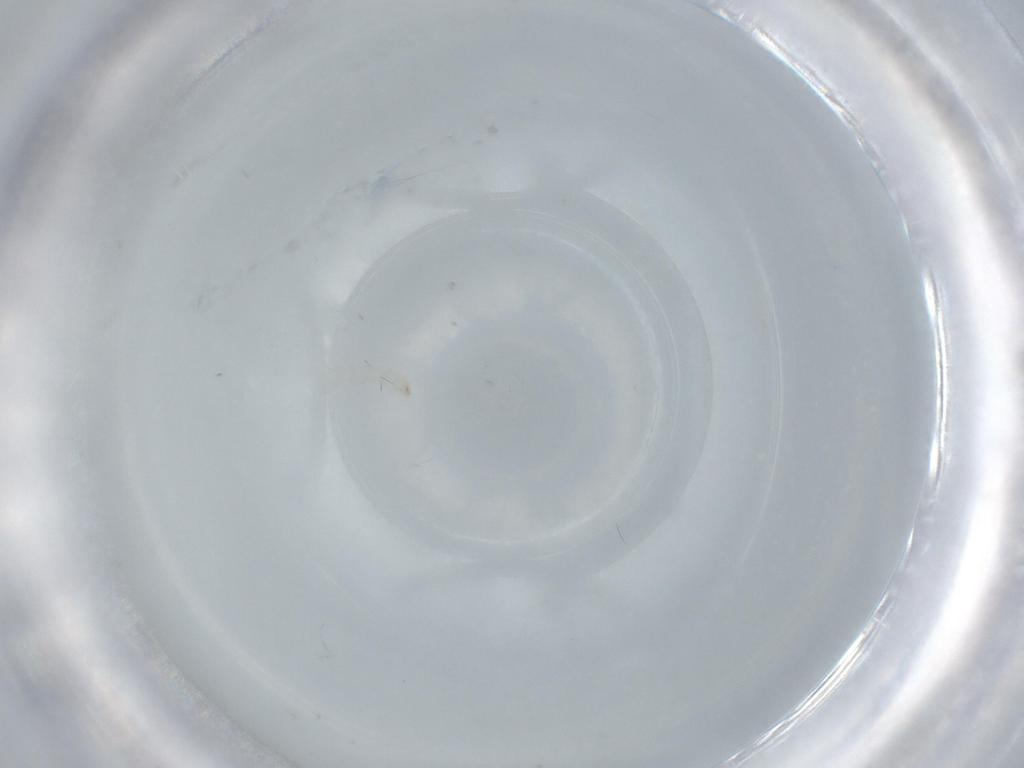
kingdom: Animalia
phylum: Arthropoda
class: Insecta
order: Lepidoptera
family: Tineidae
